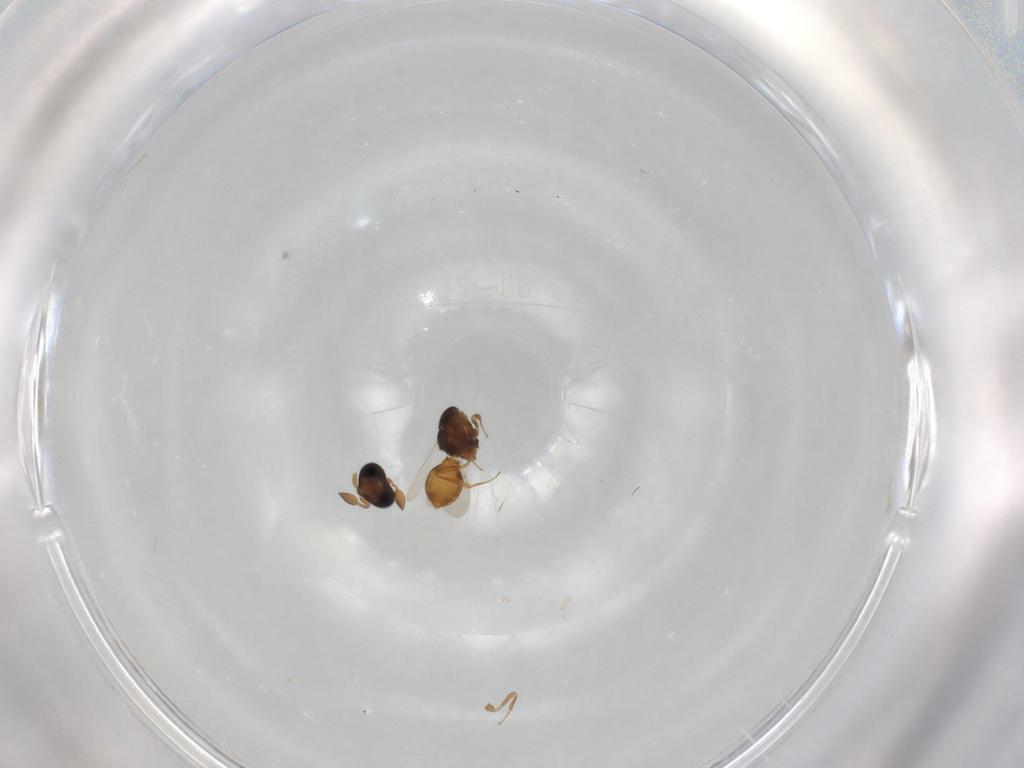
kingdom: Animalia
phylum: Arthropoda
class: Insecta
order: Hymenoptera
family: Scelionidae
